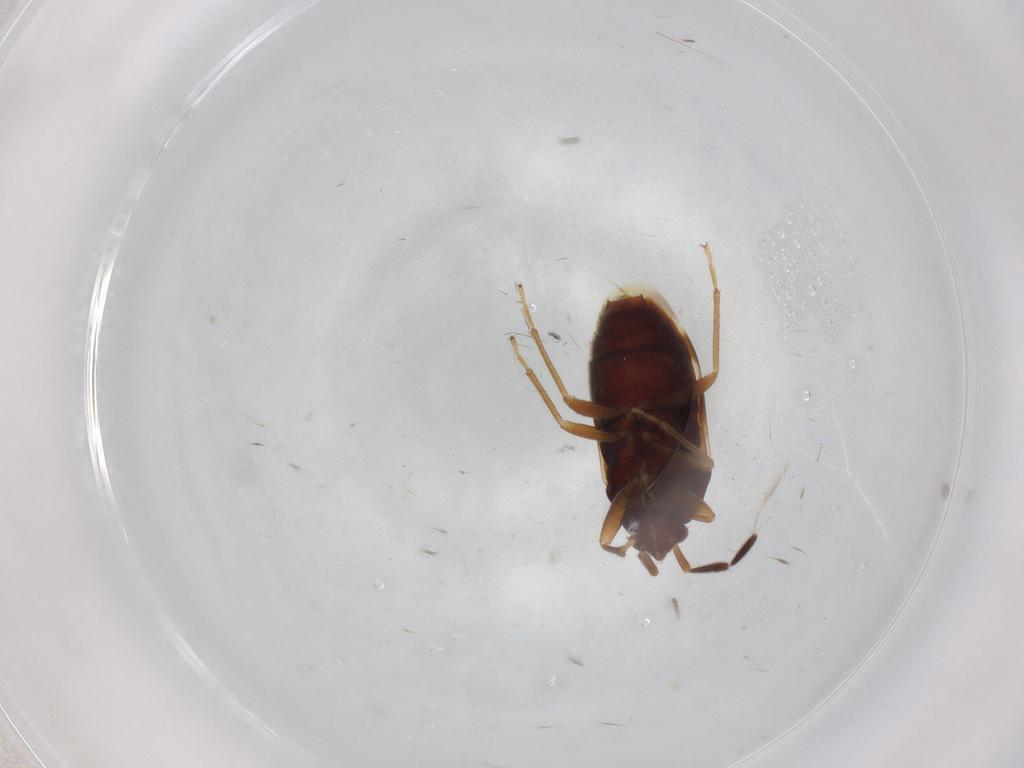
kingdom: Animalia
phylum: Arthropoda
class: Insecta
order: Hemiptera
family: Rhyparochromidae
